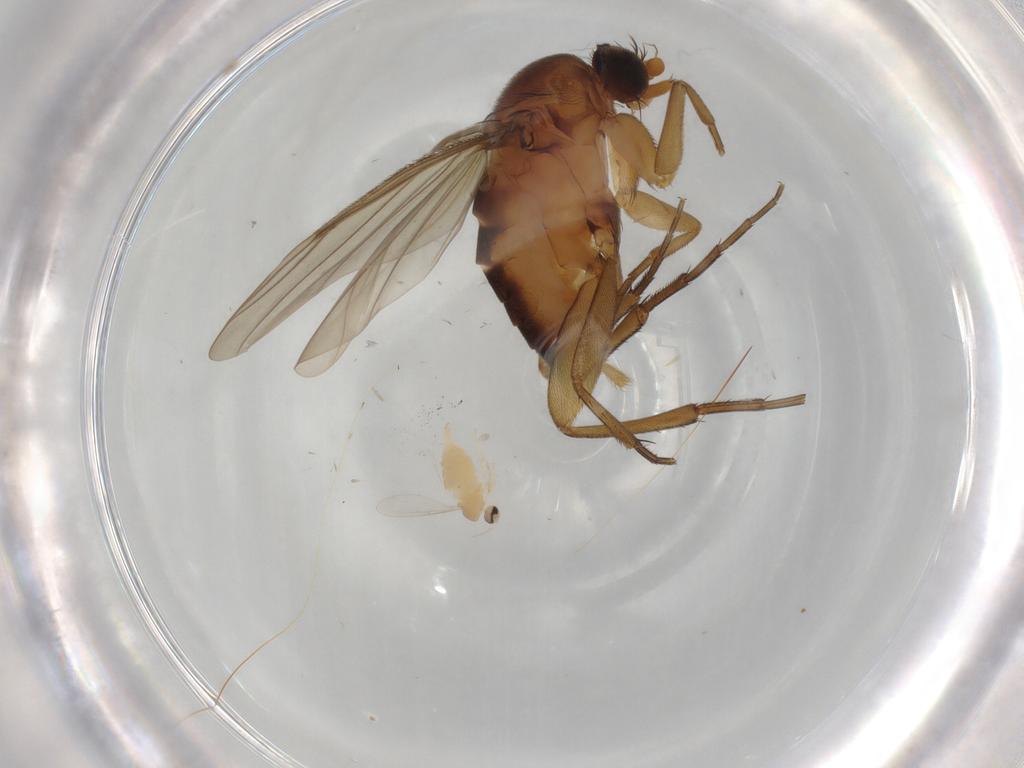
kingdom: Animalia
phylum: Arthropoda
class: Insecta
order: Diptera
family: Phoridae
